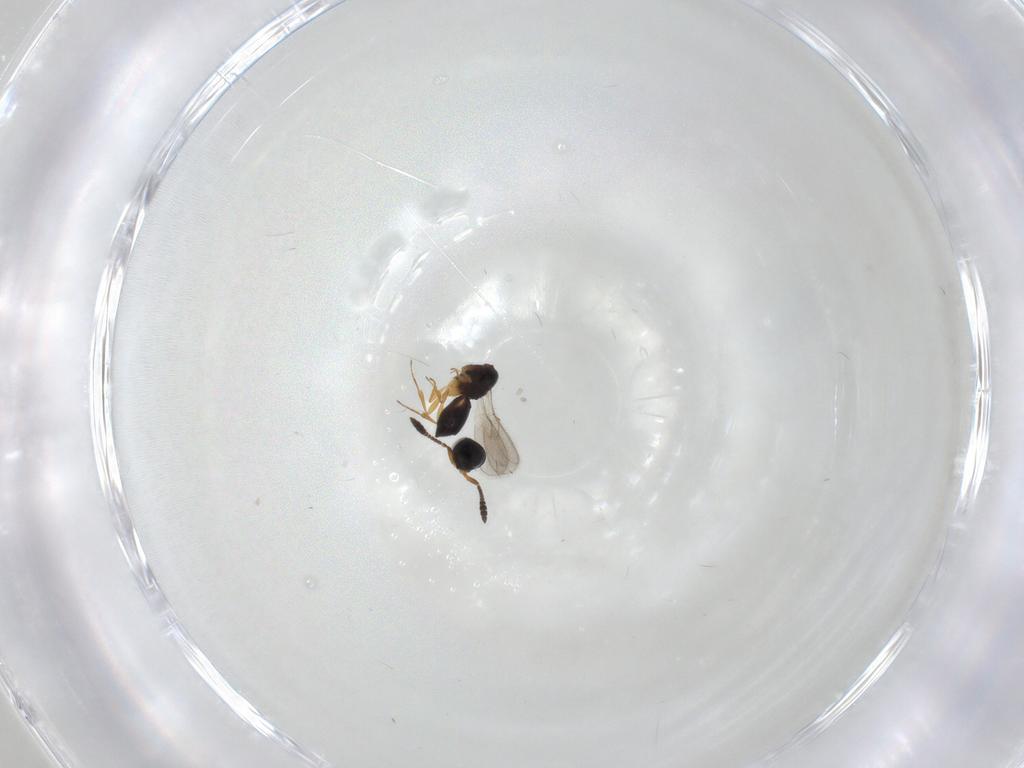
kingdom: Animalia
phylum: Arthropoda
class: Insecta
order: Hymenoptera
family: Scelionidae
